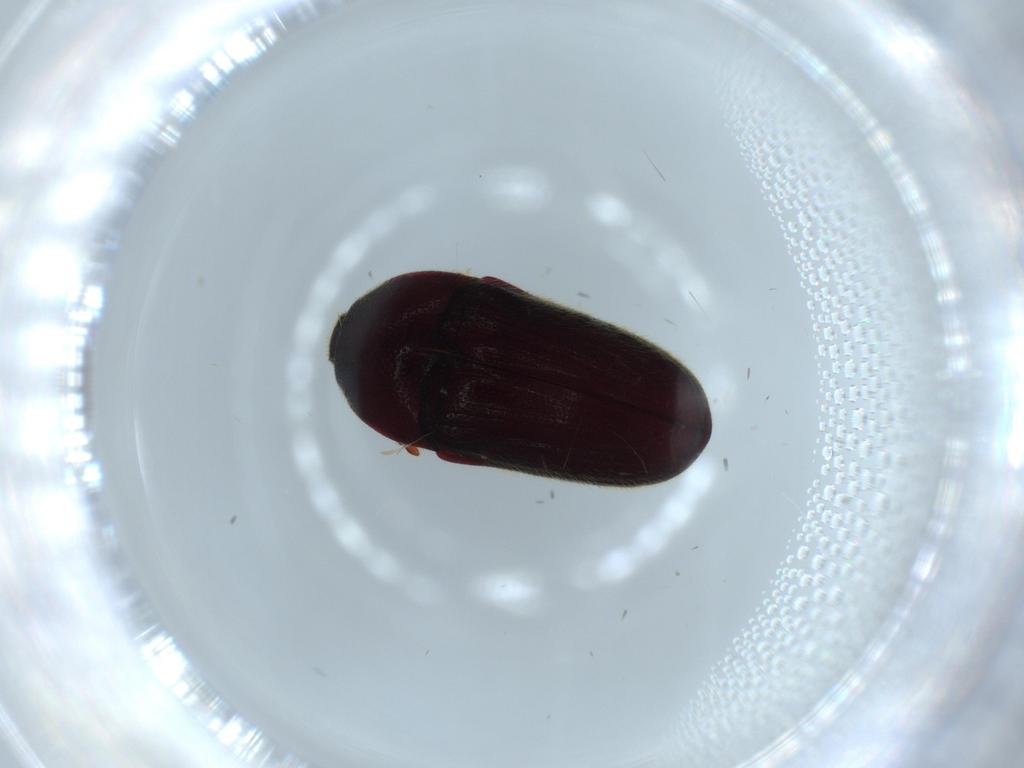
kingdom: Animalia
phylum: Arthropoda
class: Insecta
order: Coleoptera
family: Throscidae
